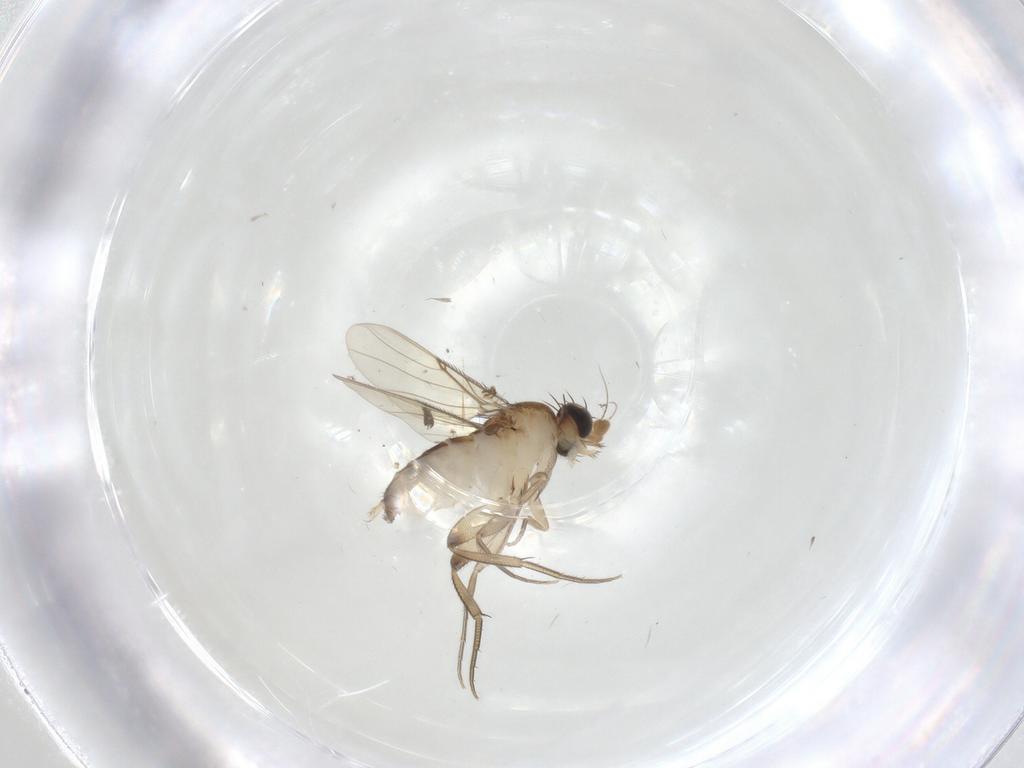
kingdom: Animalia
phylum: Arthropoda
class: Insecta
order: Diptera
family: Phoridae
